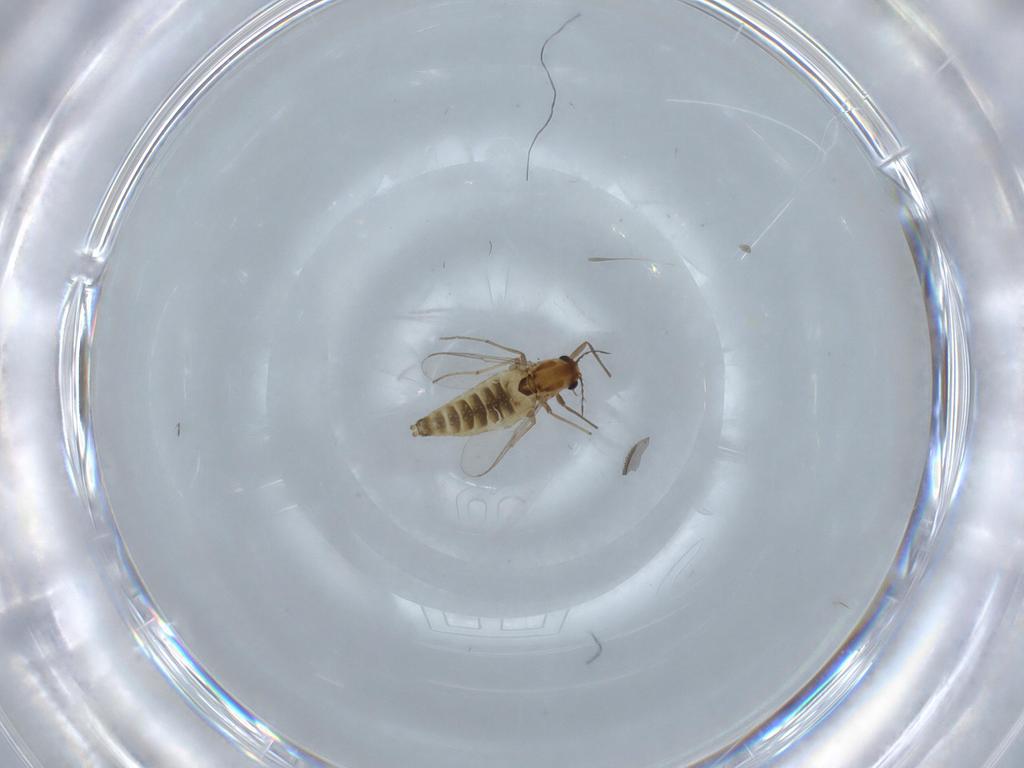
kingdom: Animalia
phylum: Arthropoda
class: Insecta
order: Diptera
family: Chironomidae
